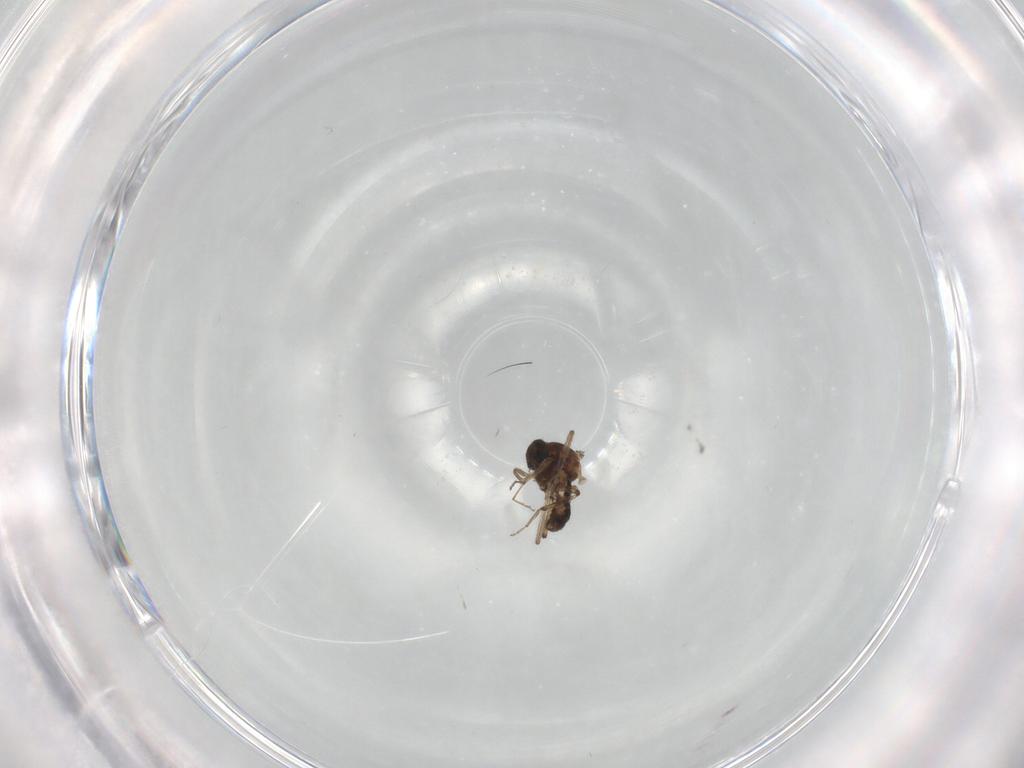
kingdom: Animalia
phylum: Arthropoda
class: Insecta
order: Diptera
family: Ceratopogonidae
